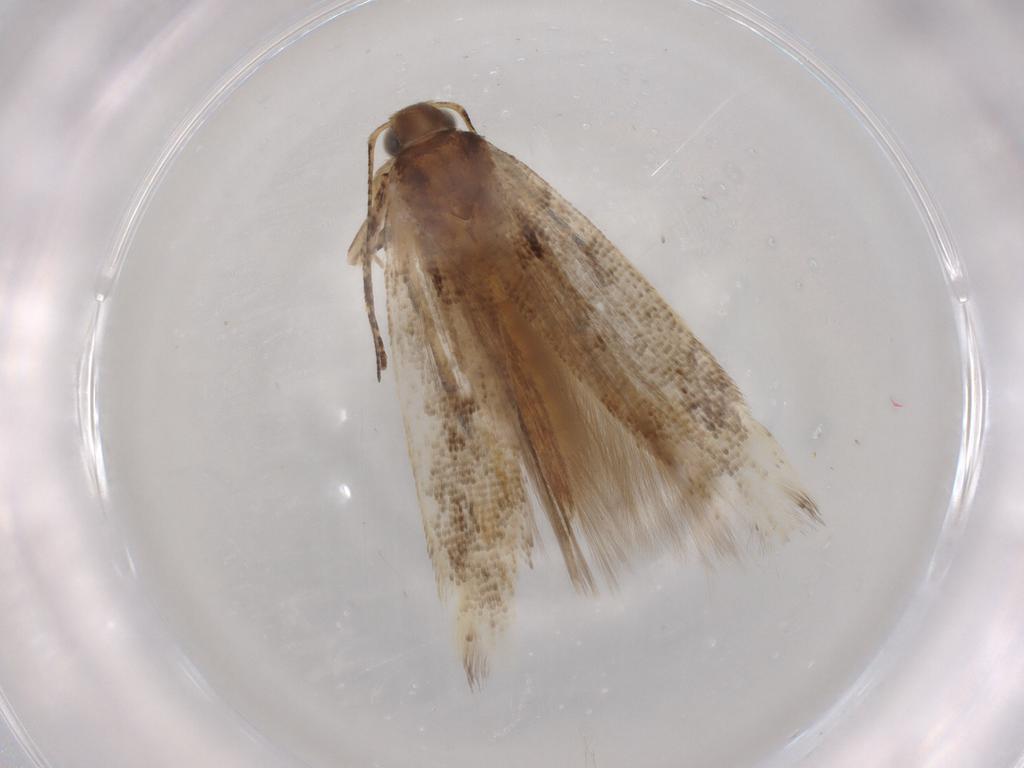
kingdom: Animalia
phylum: Arthropoda
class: Insecta
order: Lepidoptera
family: Gelechiidae
